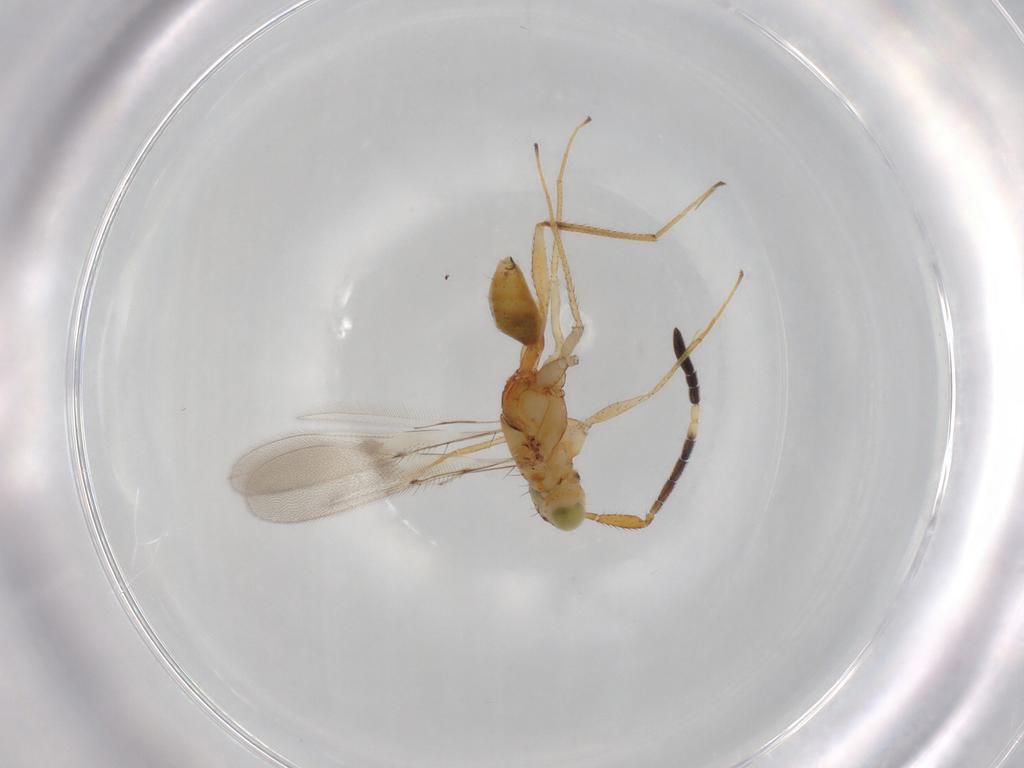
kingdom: Animalia
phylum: Arthropoda
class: Insecta
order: Hymenoptera
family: Mymaridae
